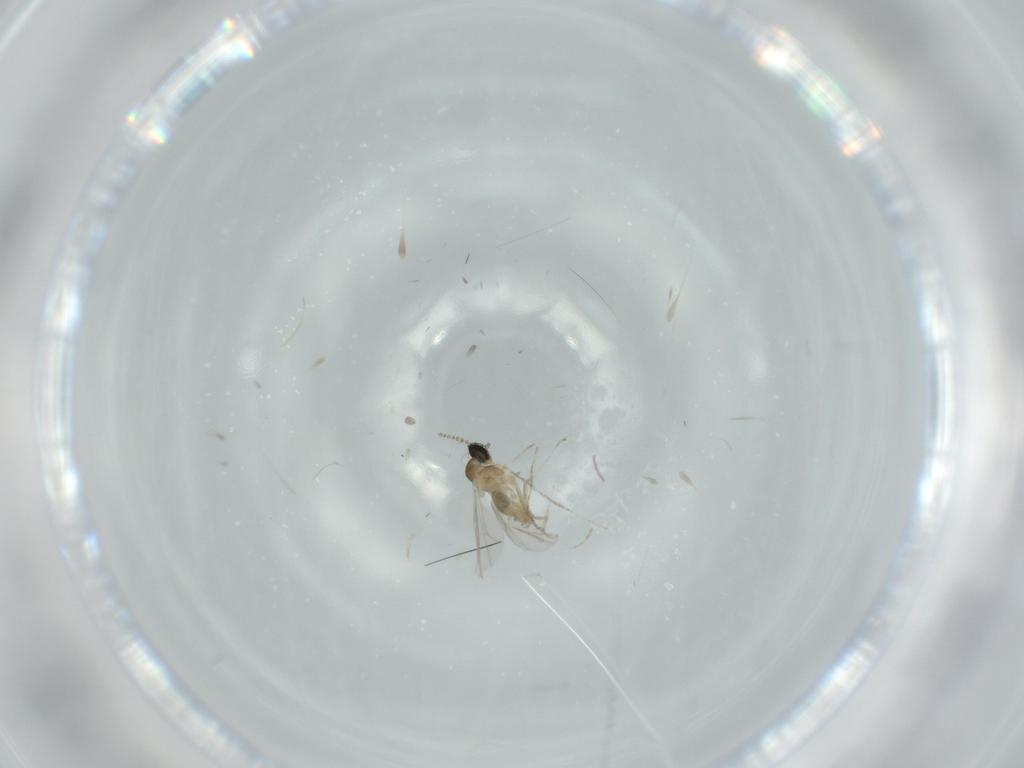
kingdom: Animalia
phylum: Arthropoda
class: Insecta
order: Diptera
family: Cecidomyiidae
